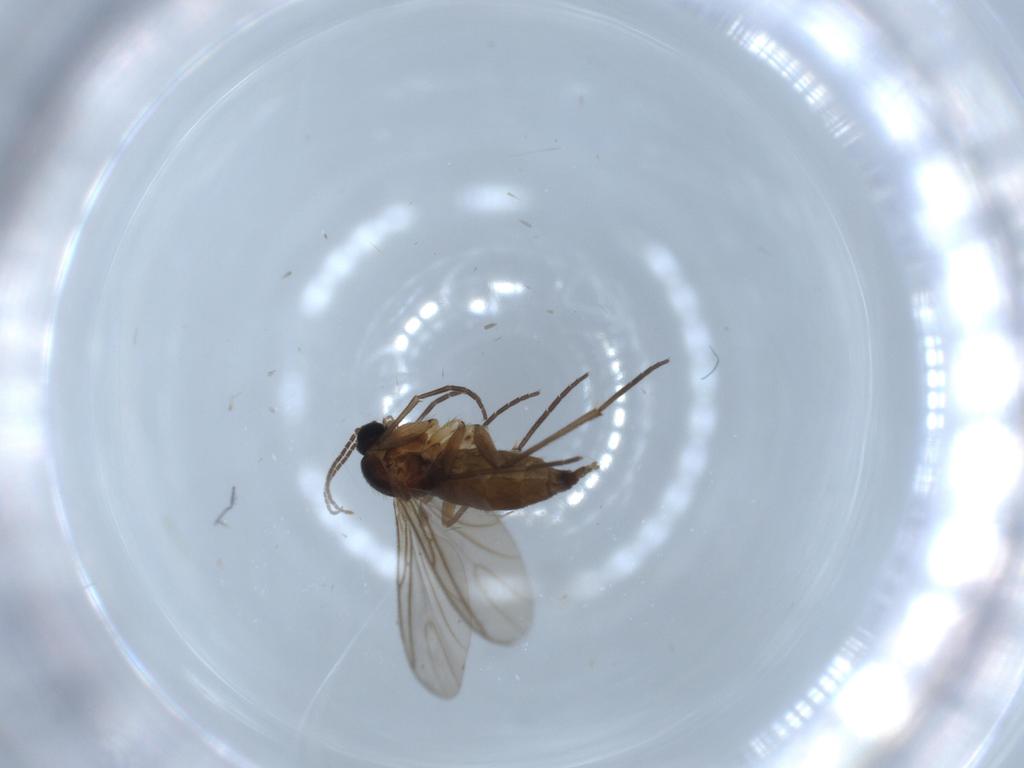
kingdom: Animalia
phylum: Arthropoda
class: Insecta
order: Diptera
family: Sciaridae
